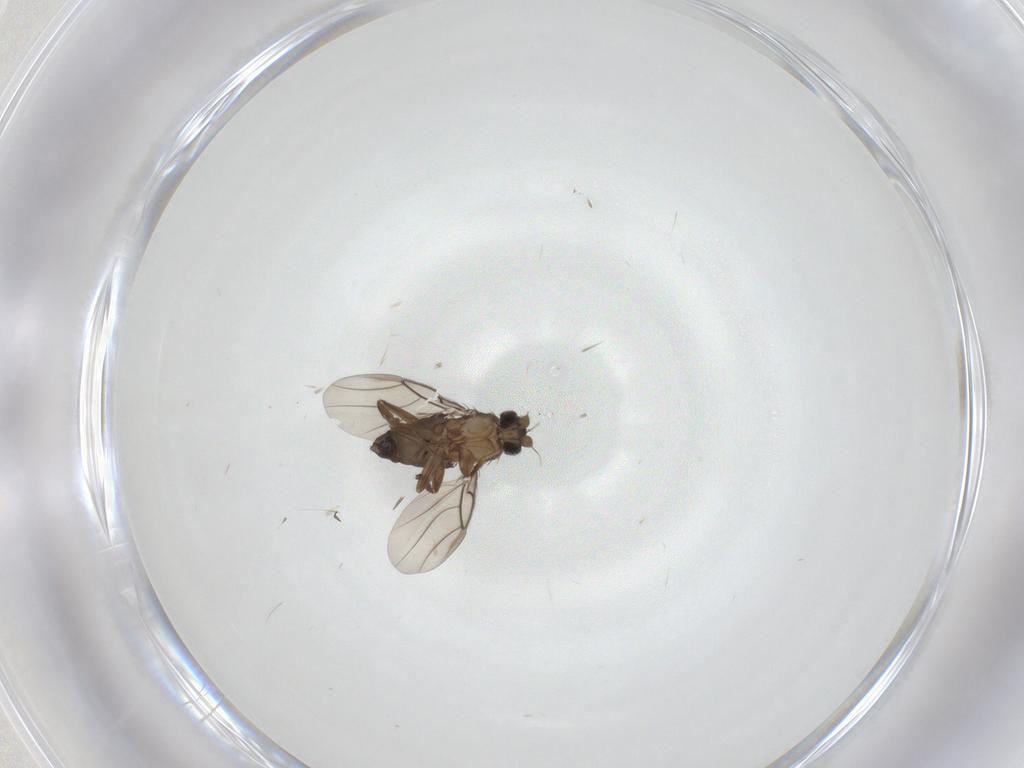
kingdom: Animalia
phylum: Arthropoda
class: Insecta
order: Diptera
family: Phoridae
